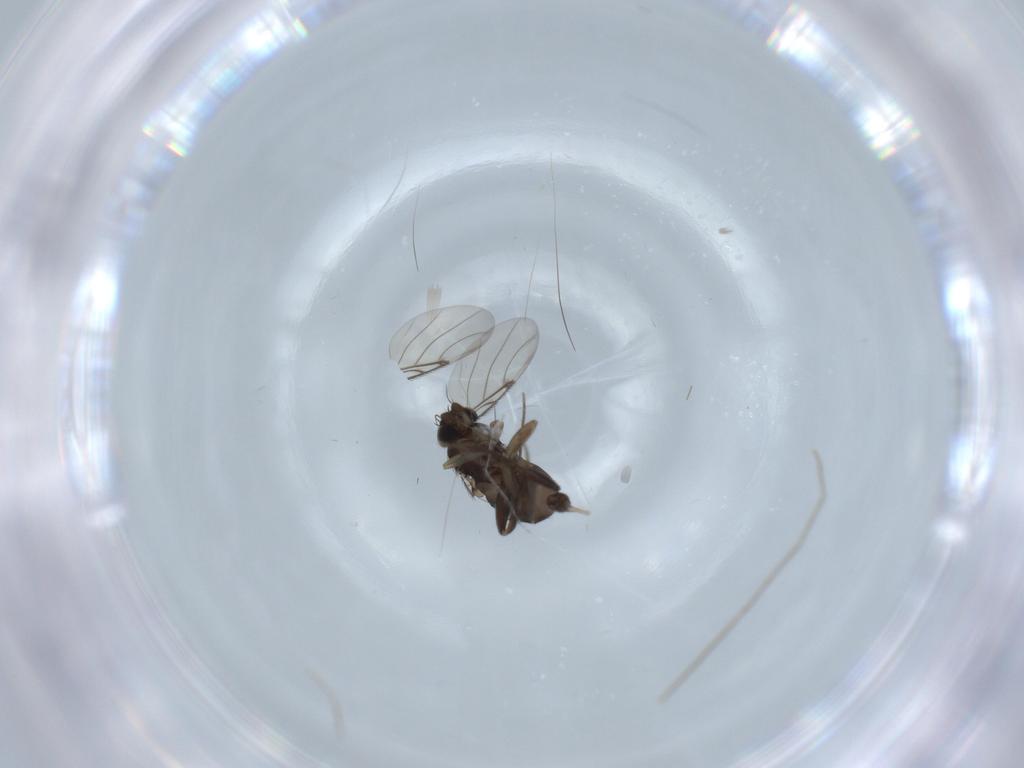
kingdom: Animalia
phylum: Arthropoda
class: Insecta
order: Diptera
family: Phoridae
